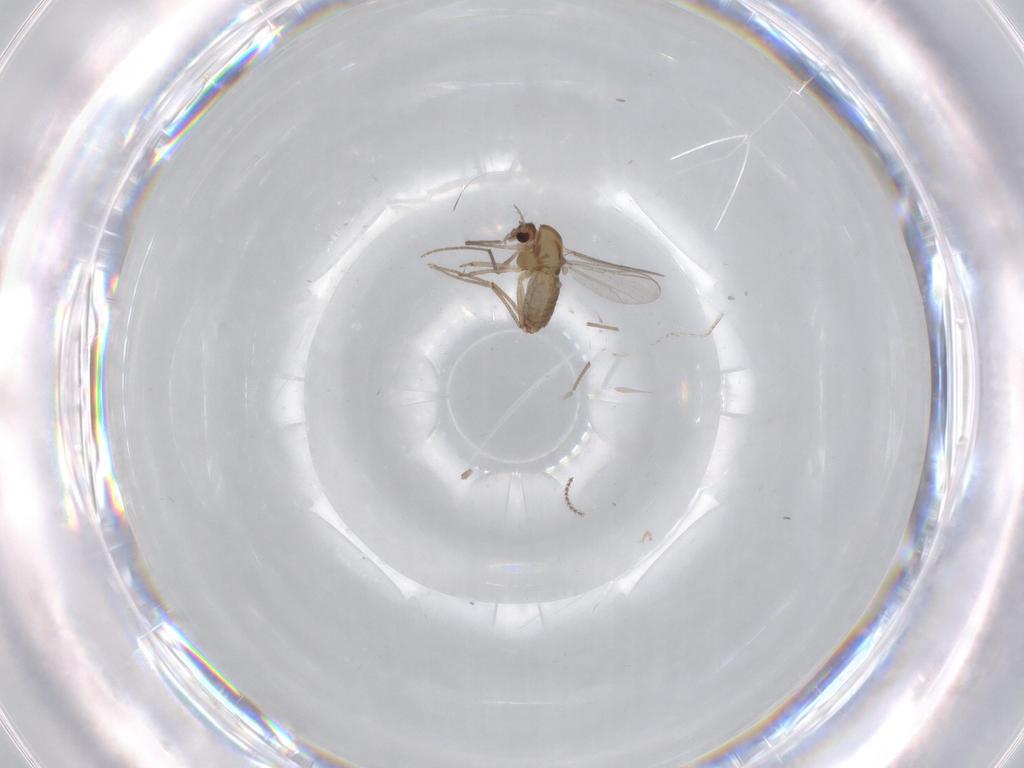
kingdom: Animalia
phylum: Arthropoda
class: Insecta
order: Diptera
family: Chironomidae
